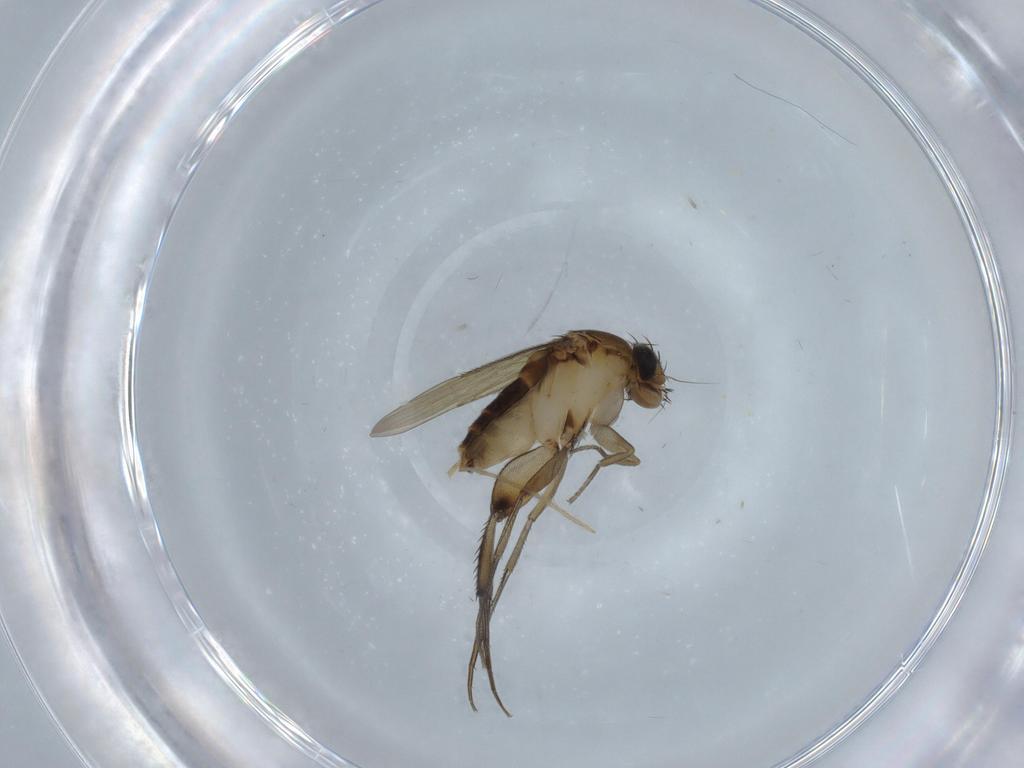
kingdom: Animalia
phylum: Arthropoda
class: Insecta
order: Diptera
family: Phoridae
